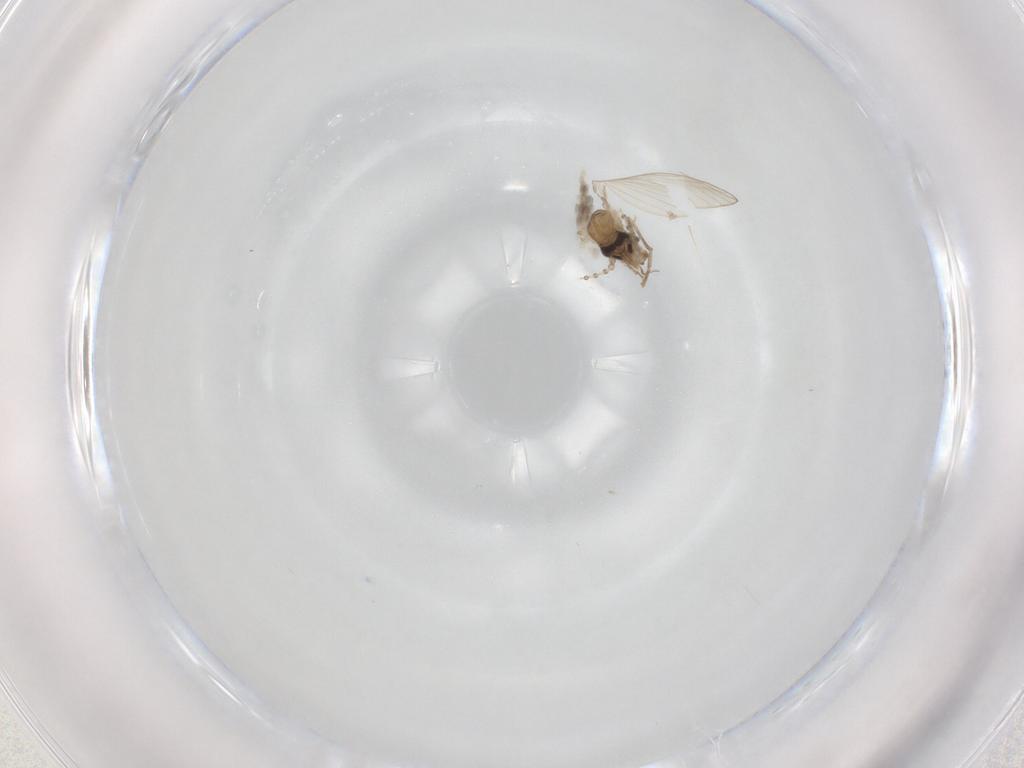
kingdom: Animalia
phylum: Arthropoda
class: Insecta
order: Diptera
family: Psychodidae
